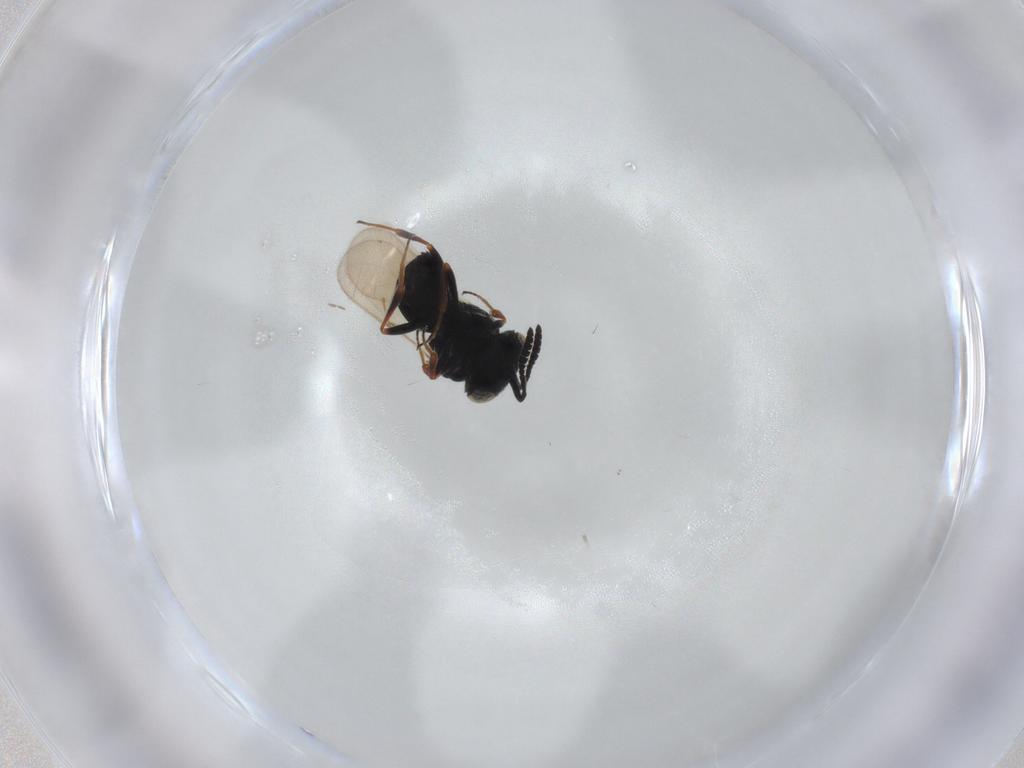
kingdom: Animalia
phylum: Arthropoda
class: Insecta
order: Hymenoptera
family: Scelionidae
